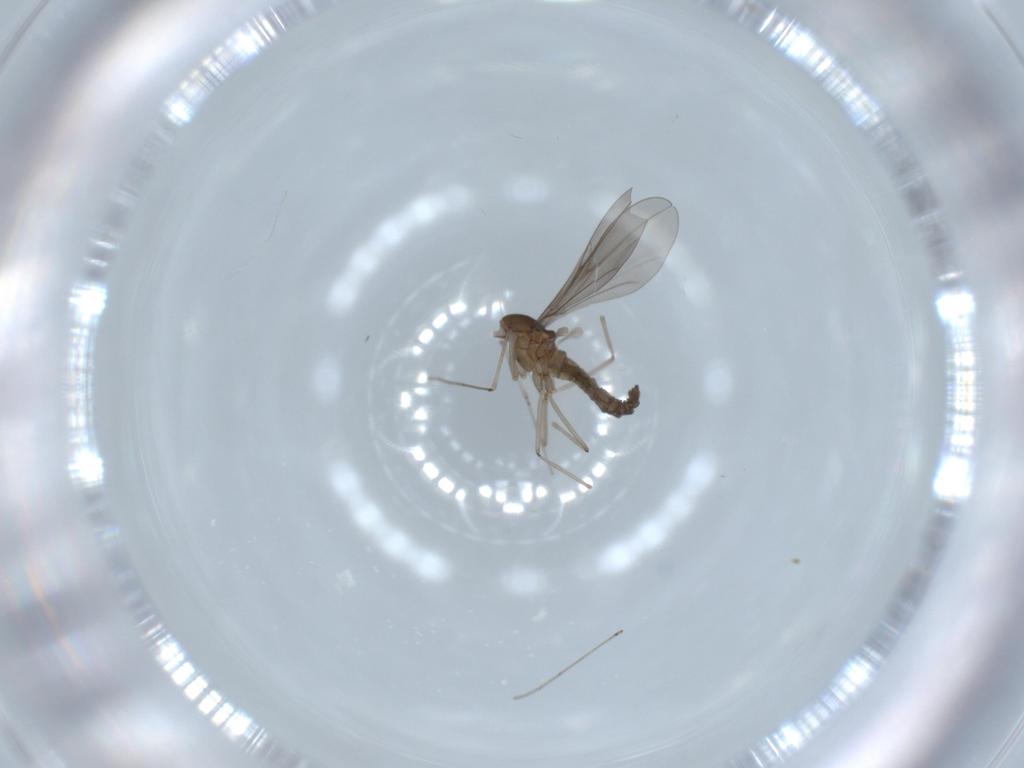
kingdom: Animalia
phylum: Arthropoda
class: Insecta
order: Diptera
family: Cecidomyiidae
